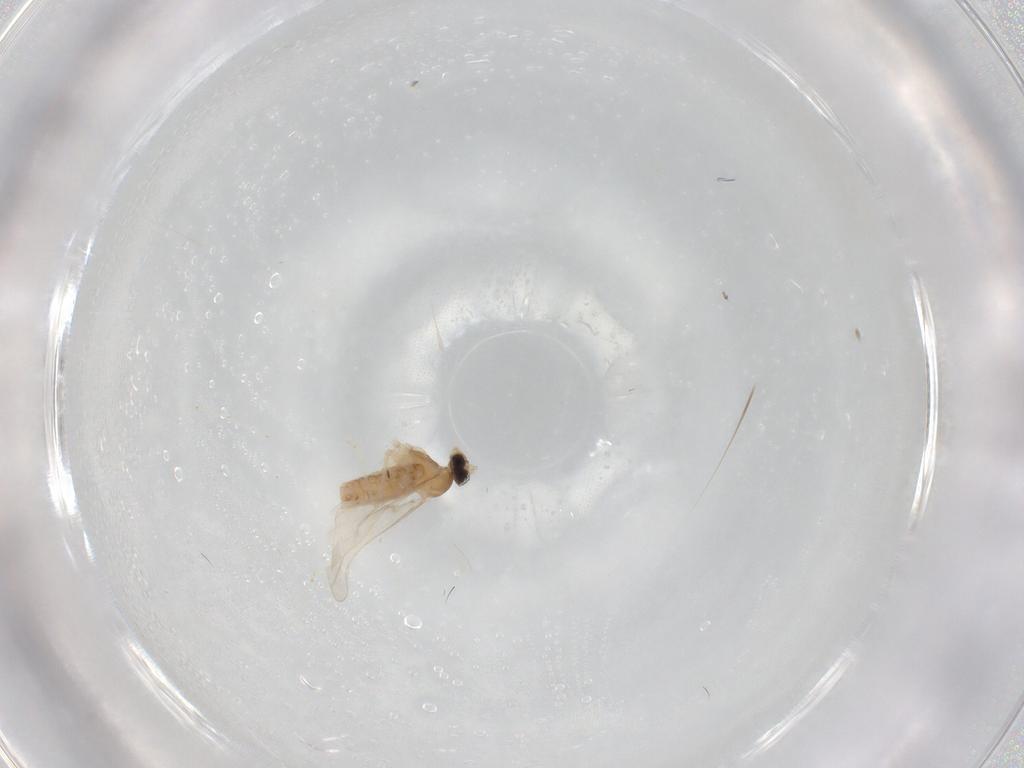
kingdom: Animalia
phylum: Arthropoda
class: Insecta
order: Diptera
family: Cecidomyiidae
